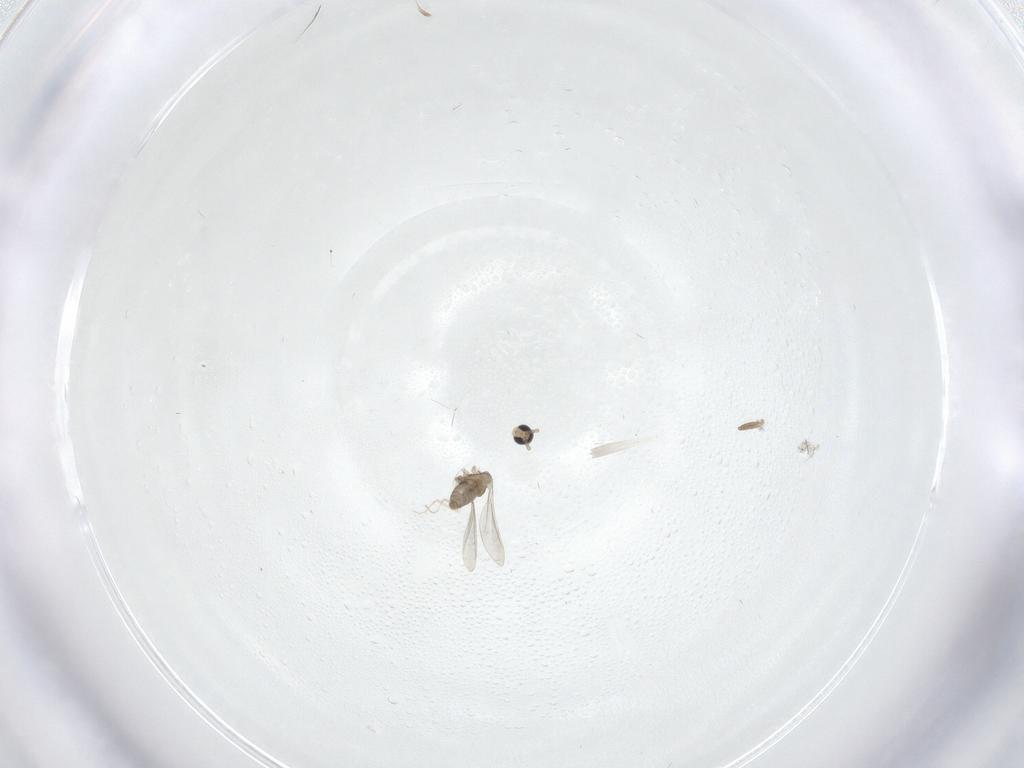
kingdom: Animalia
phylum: Arthropoda
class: Insecta
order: Diptera
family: Cecidomyiidae
